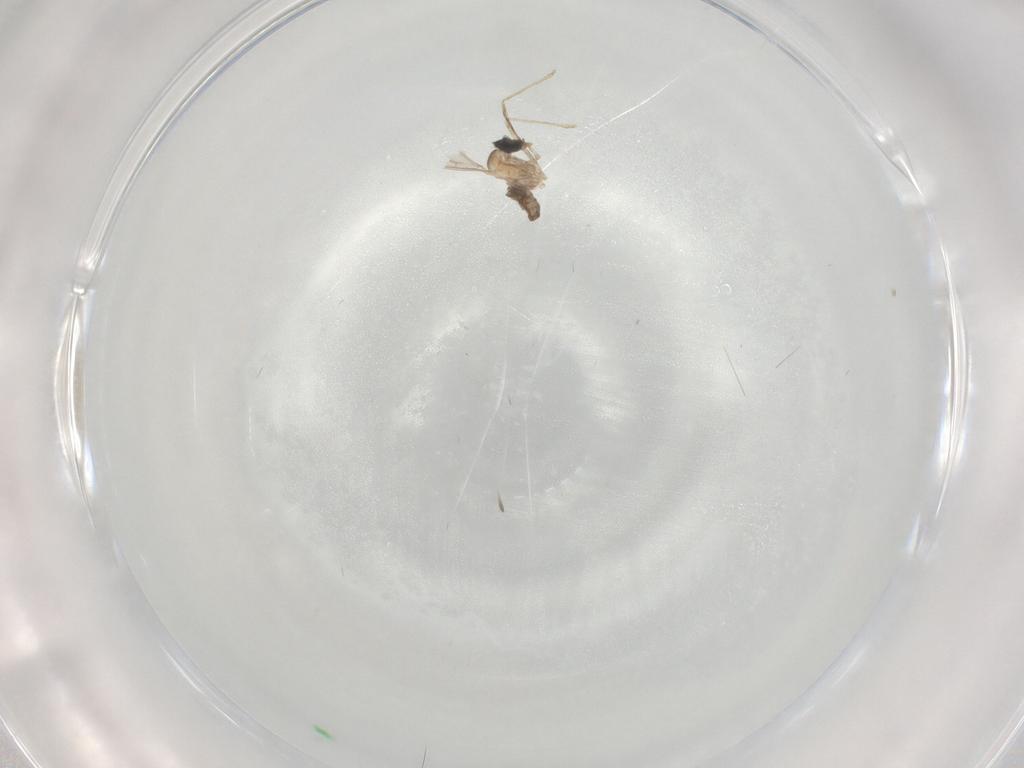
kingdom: Animalia
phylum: Arthropoda
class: Insecta
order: Diptera
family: Cecidomyiidae
